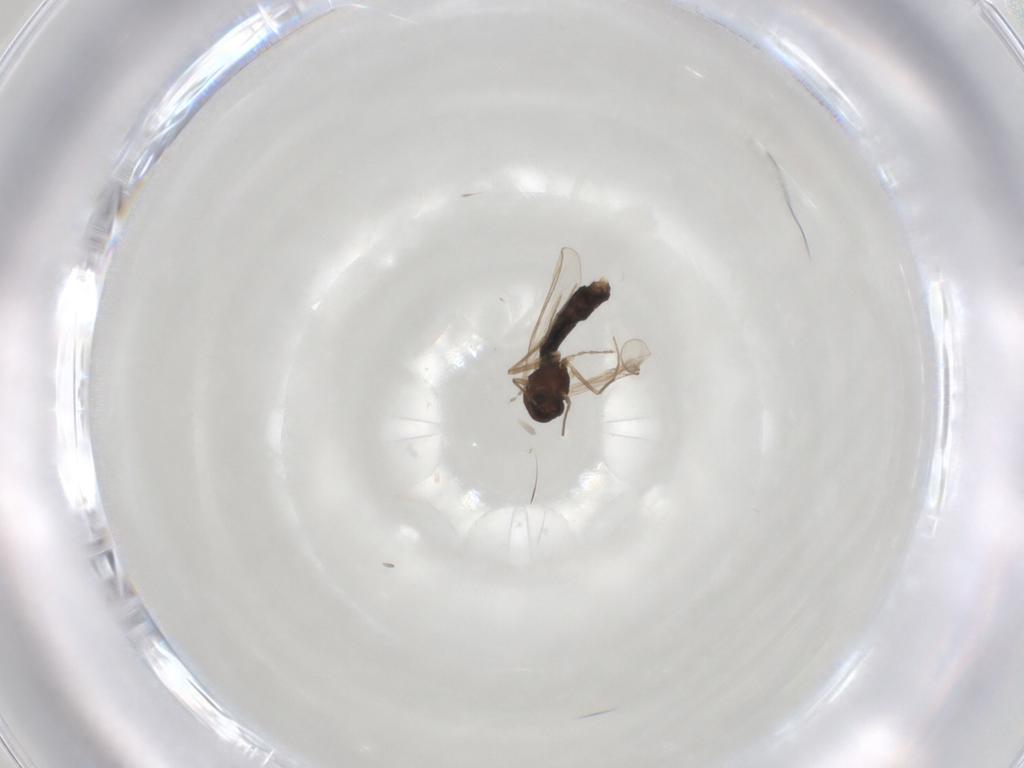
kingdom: Animalia
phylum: Arthropoda
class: Insecta
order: Diptera
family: Chironomidae
